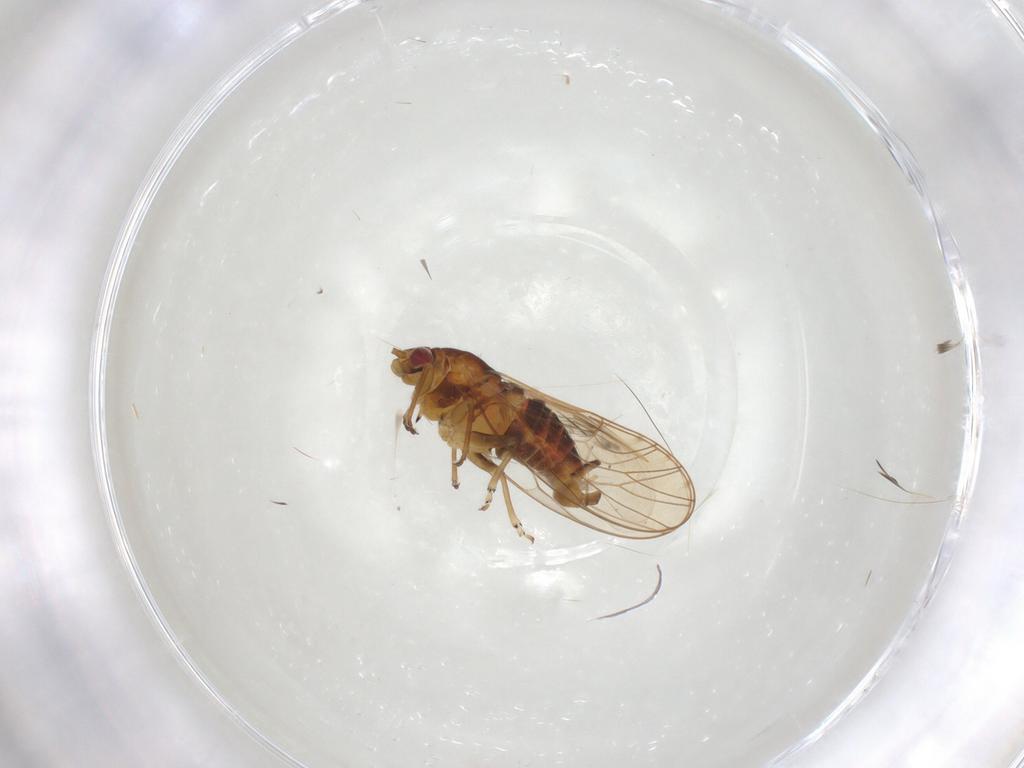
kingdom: Animalia
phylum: Arthropoda
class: Insecta
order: Hemiptera
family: Psyllidae
